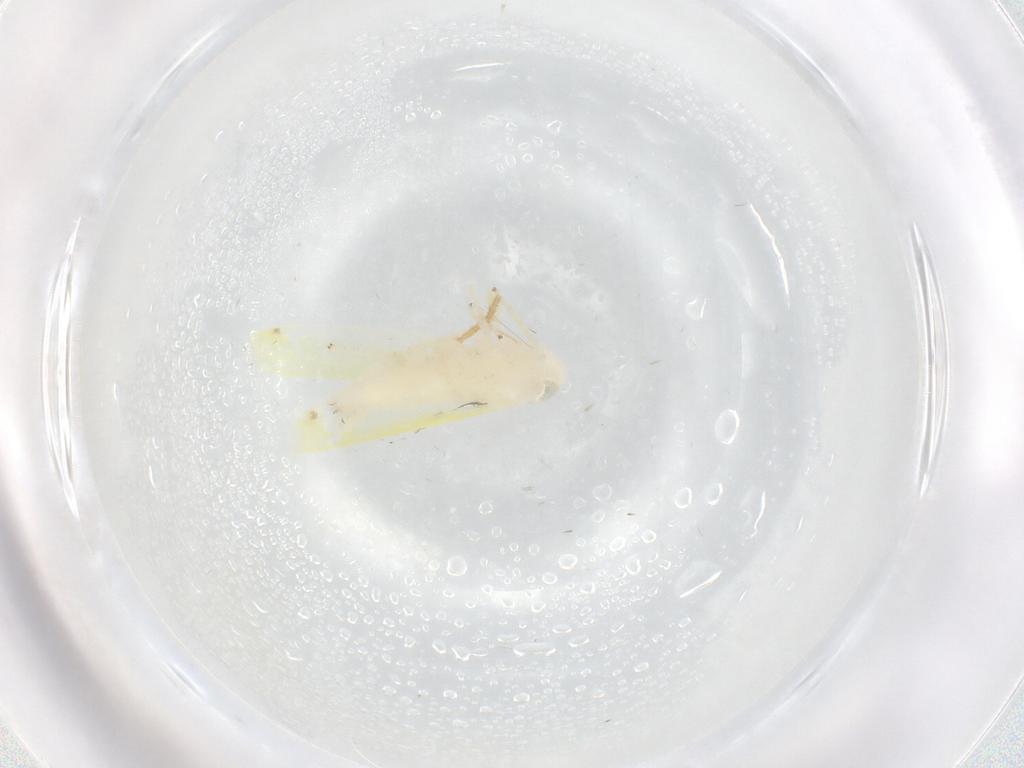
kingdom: Animalia
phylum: Arthropoda
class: Insecta
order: Hemiptera
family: Cicadellidae
